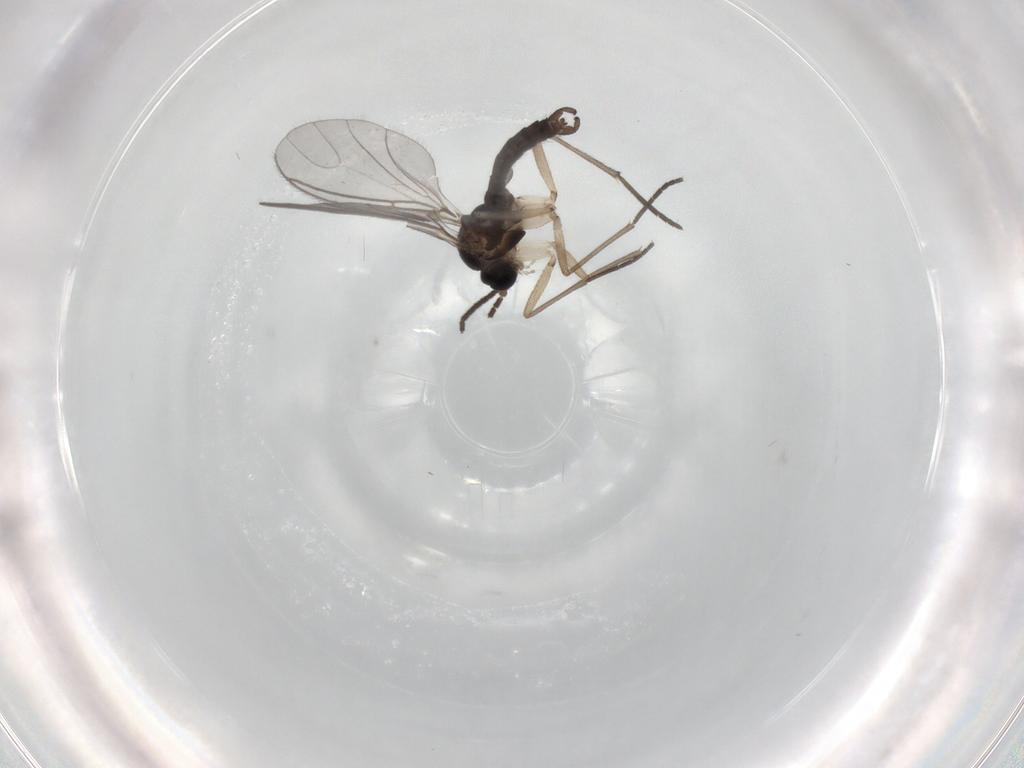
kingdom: Animalia
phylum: Arthropoda
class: Insecta
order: Diptera
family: Sciaridae
